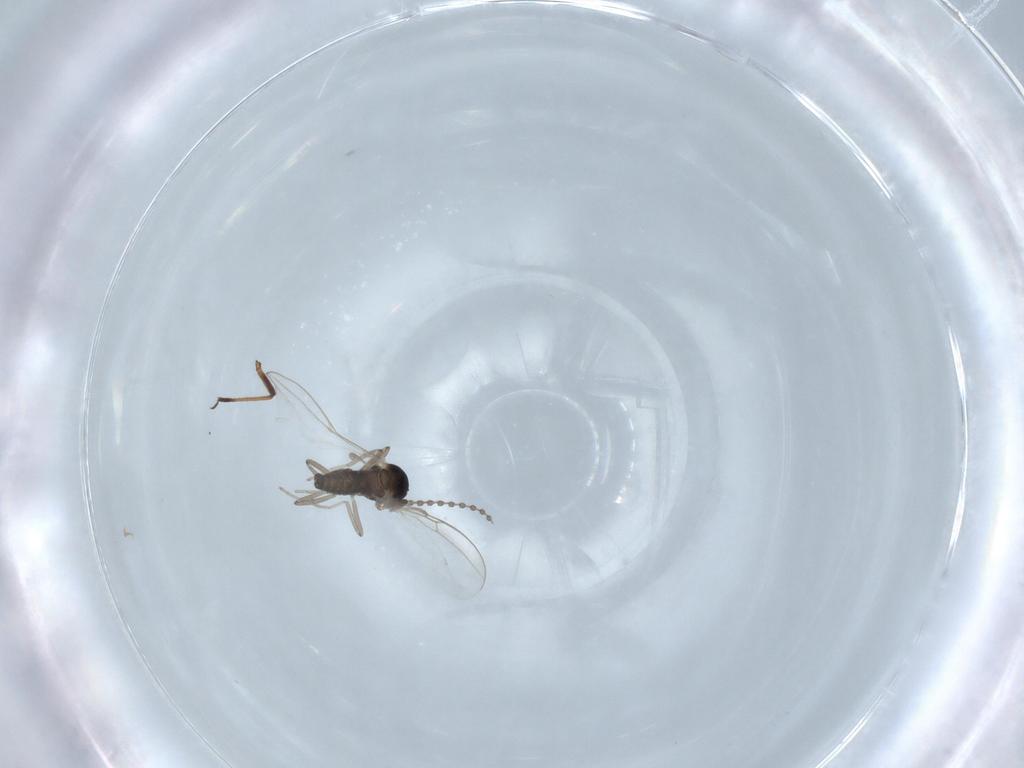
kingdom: Animalia
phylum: Arthropoda
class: Insecta
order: Diptera
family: Cecidomyiidae
